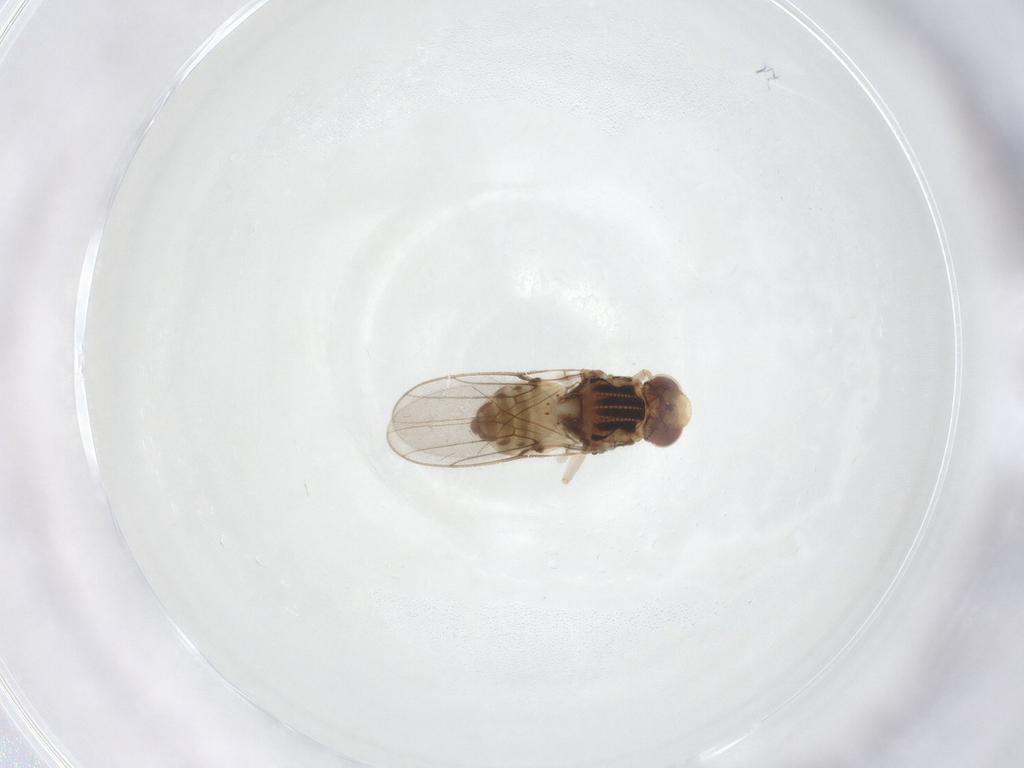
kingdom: Animalia
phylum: Arthropoda
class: Insecta
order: Diptera
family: Chloropidae
